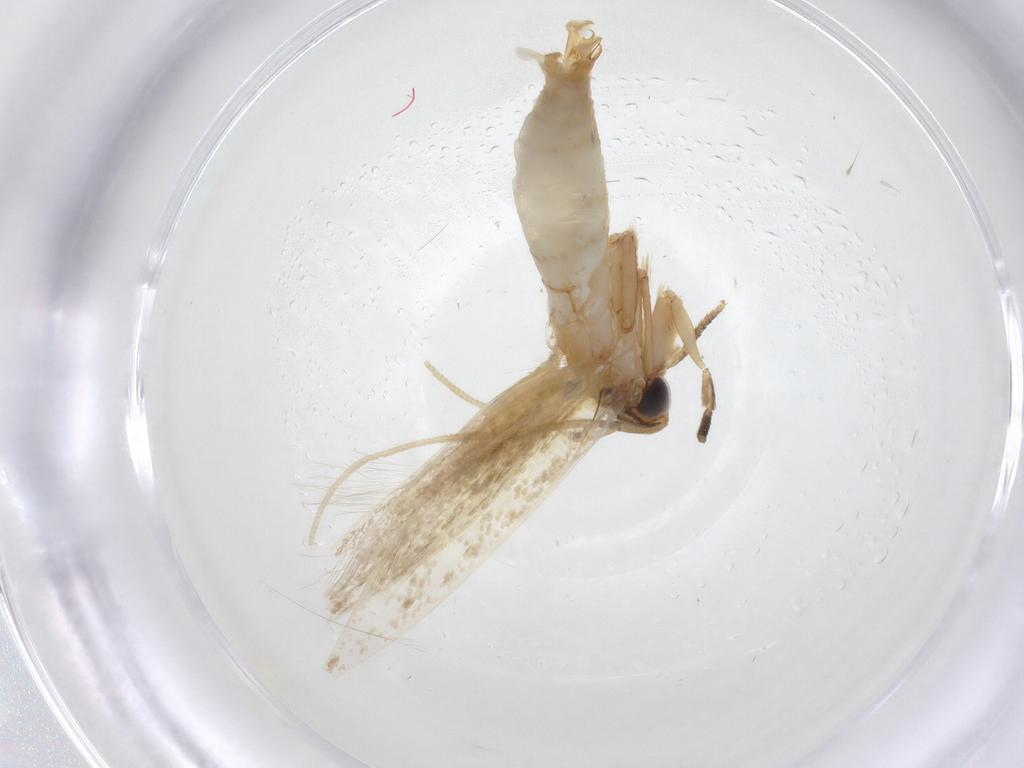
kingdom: Animalia
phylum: Arthropoda
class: Insecta
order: Lepidoptera
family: Tineidae
